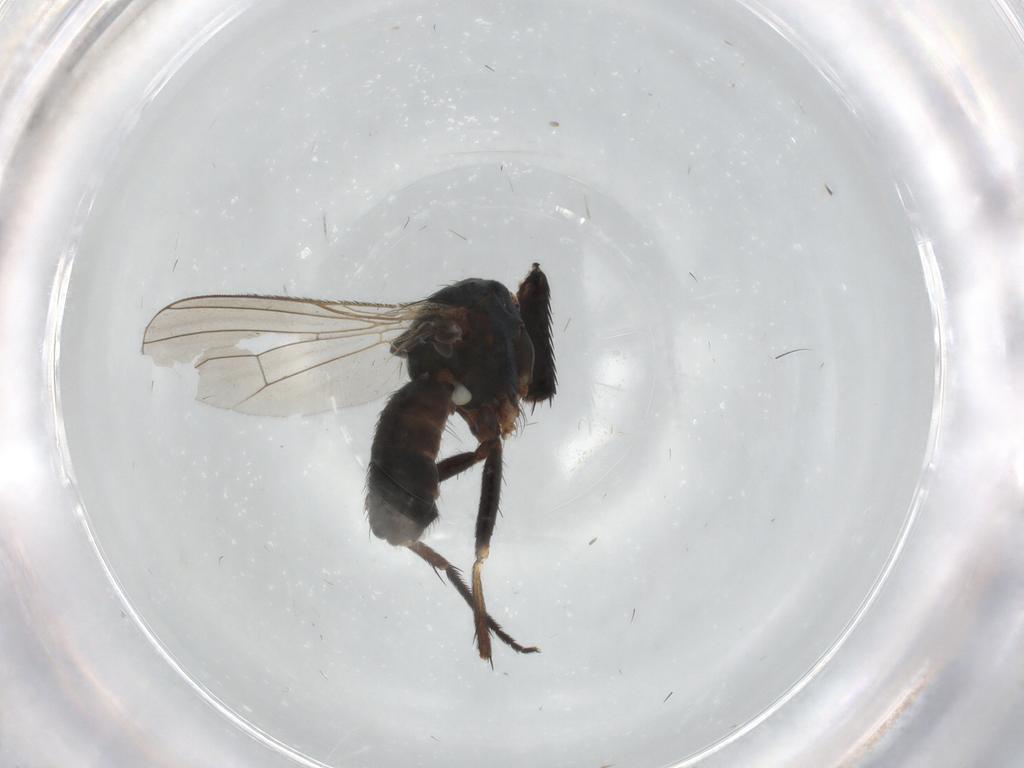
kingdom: Animalia
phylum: Arthropoda
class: Insecta
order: Diptera
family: Muscidae
